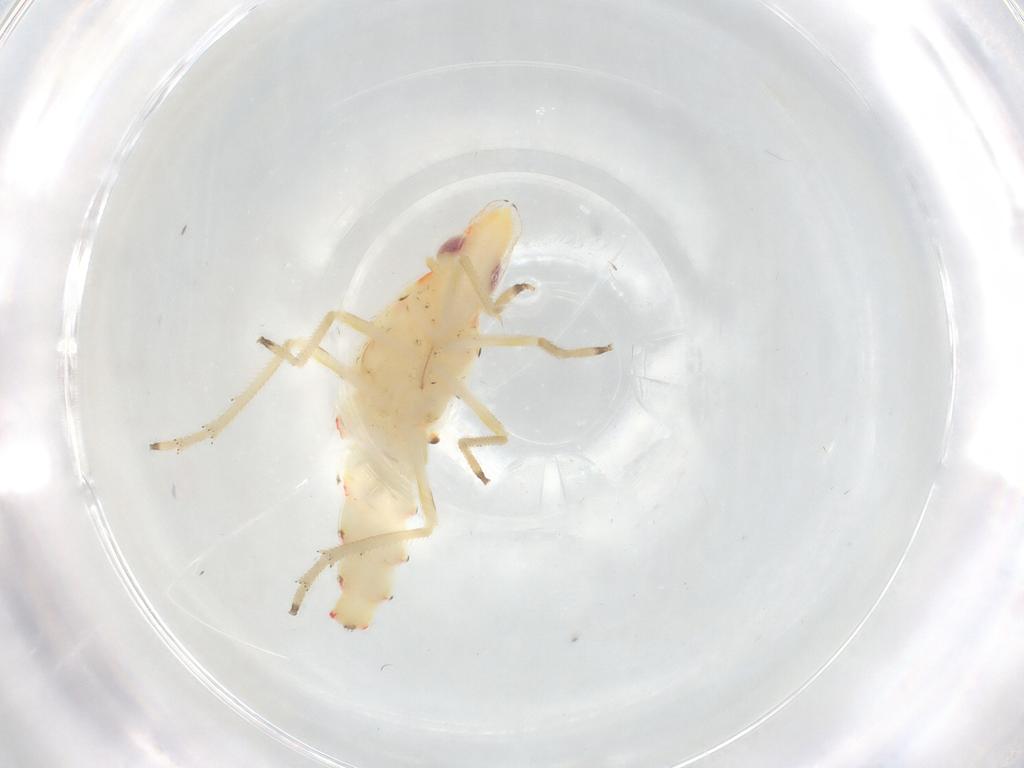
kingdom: Animalia
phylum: Arthropoda
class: Insecta
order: Hemiptera
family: Tropiduchidae
